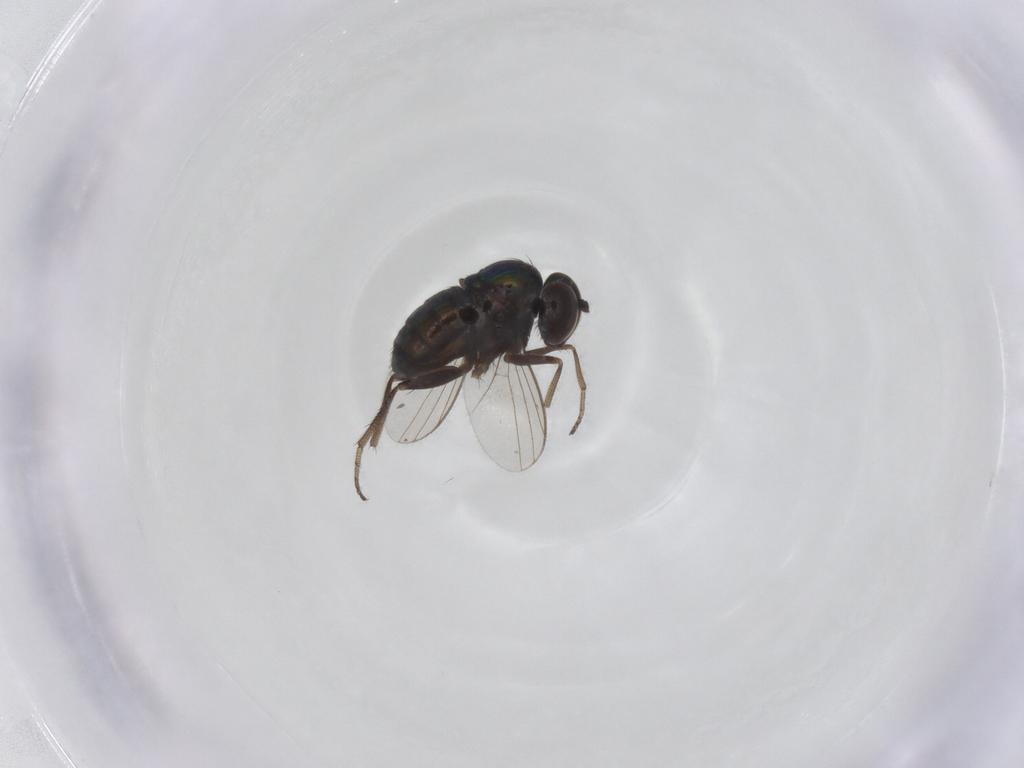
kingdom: Animalia
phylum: Arthropoda
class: Insecta
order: Diptera
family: Dolichopodidae
